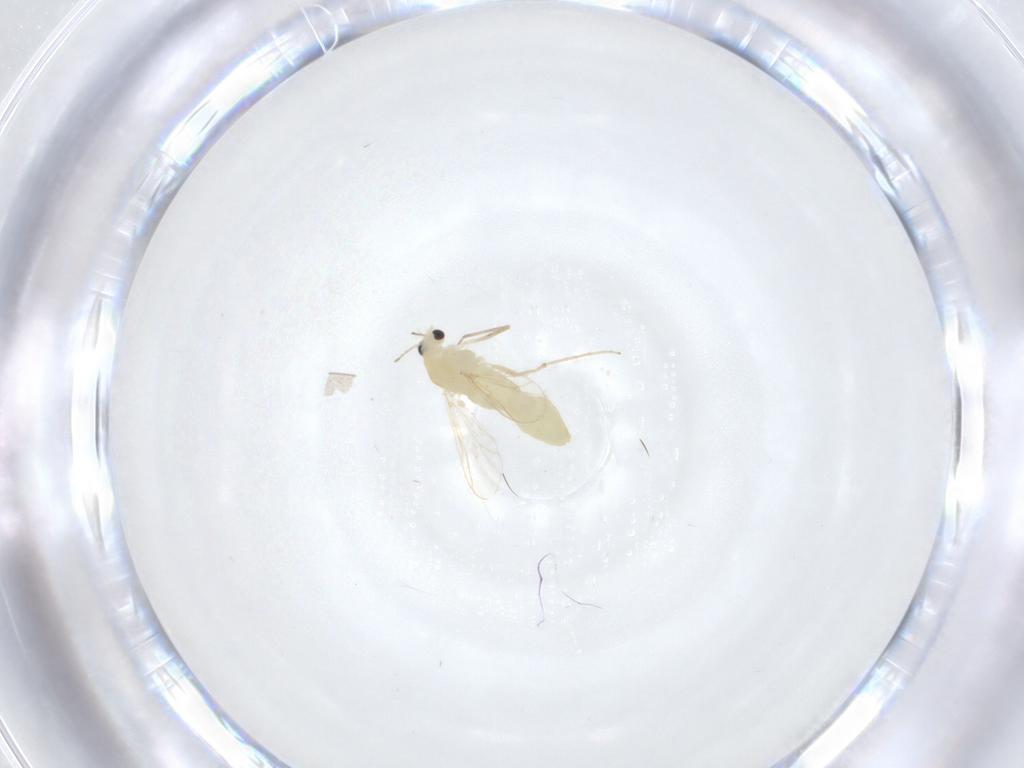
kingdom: Animalia
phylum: Arthropoda
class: Insecta
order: Diptera
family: Chironomidae
